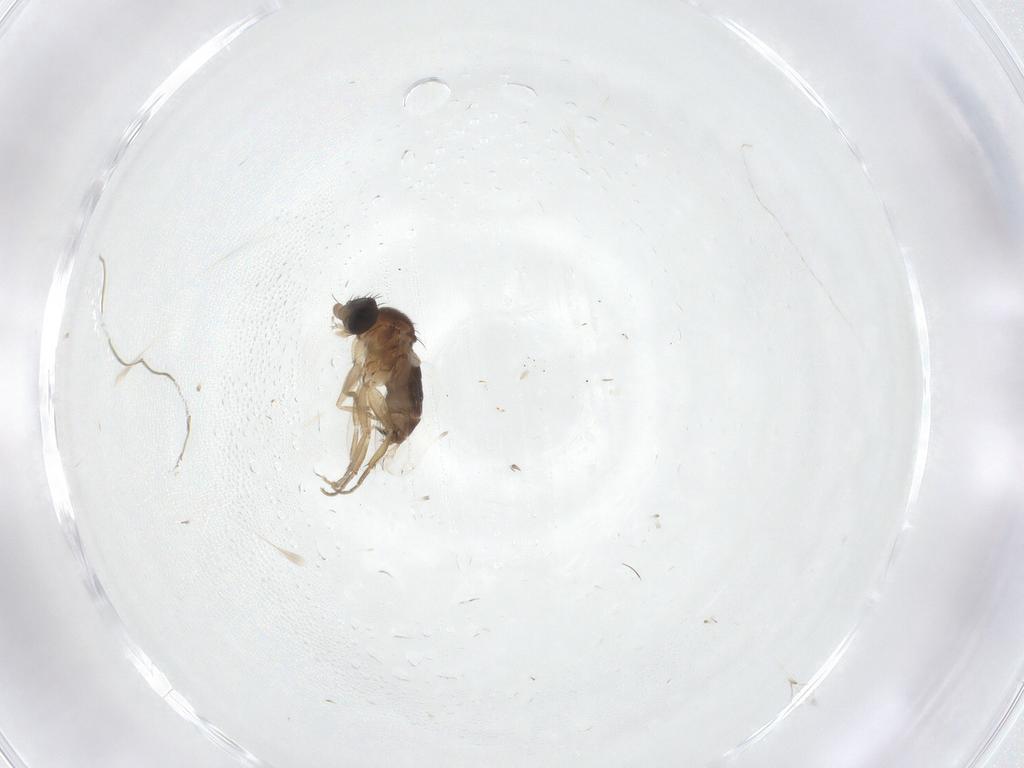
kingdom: Animalia
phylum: Arthropoda
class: Insecta
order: Diptera
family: Phoridae
